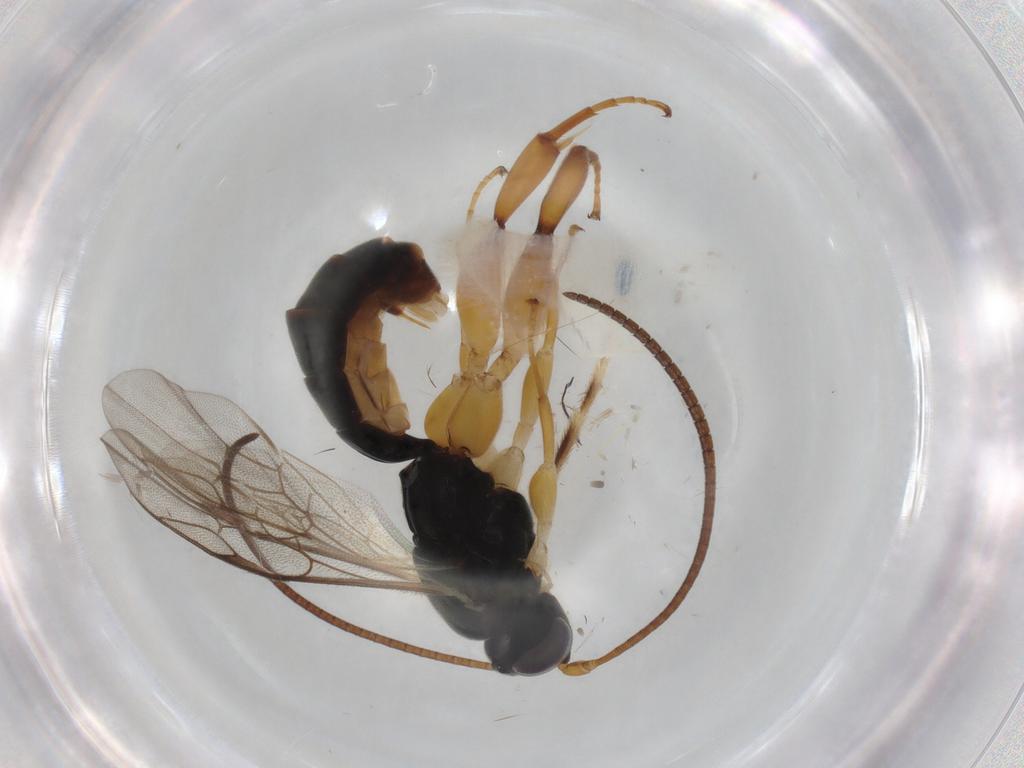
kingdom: Animalia
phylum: Arthropoda
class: Insecta
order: Hymenoptera
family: Ichneumonidae
